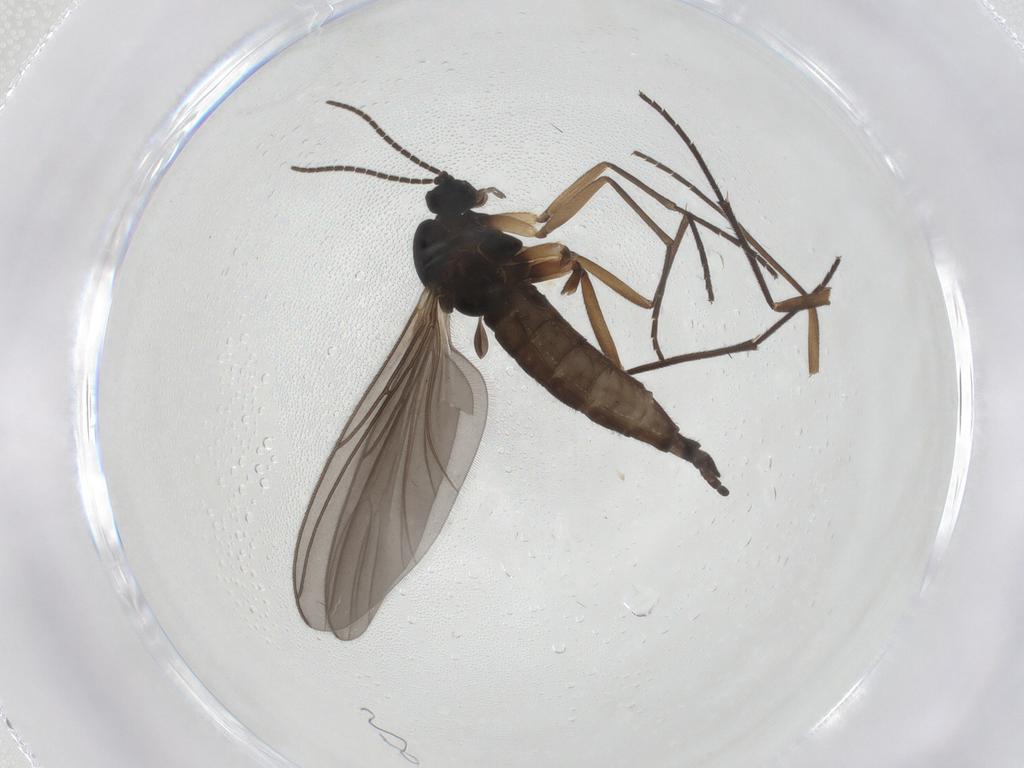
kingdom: Animalia
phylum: Arthropoda
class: Insecta
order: Diptera
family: Sciaridae
